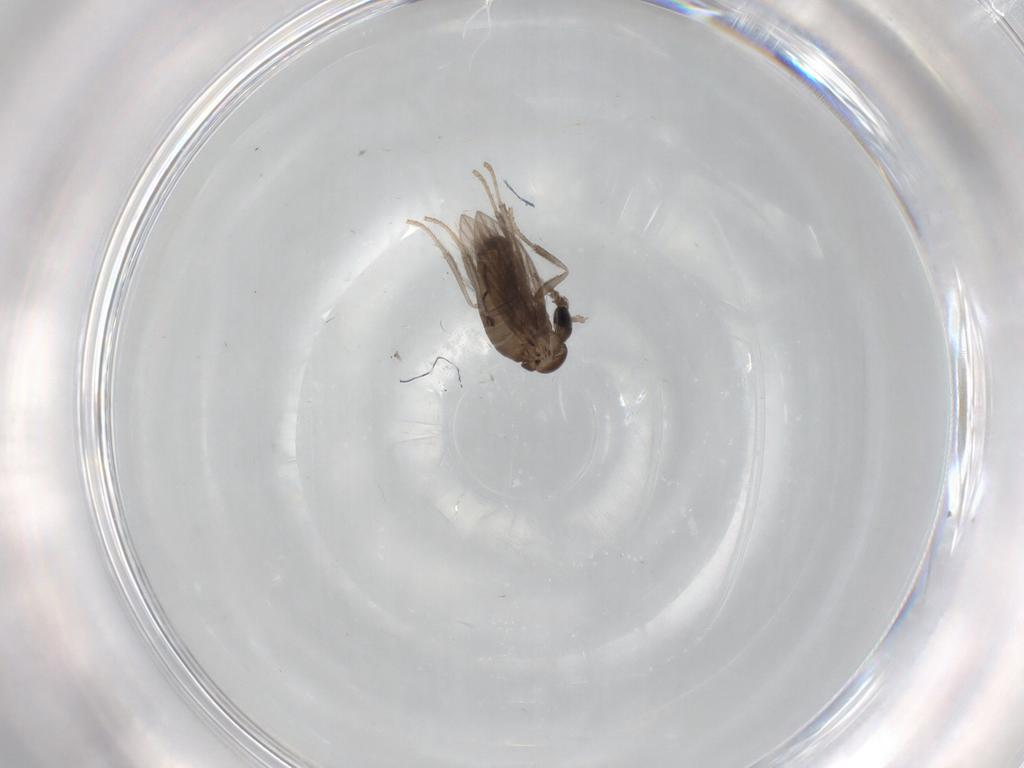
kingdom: Animalia
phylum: Arthropoda
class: Insecta
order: Diptera
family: Psychodidae
